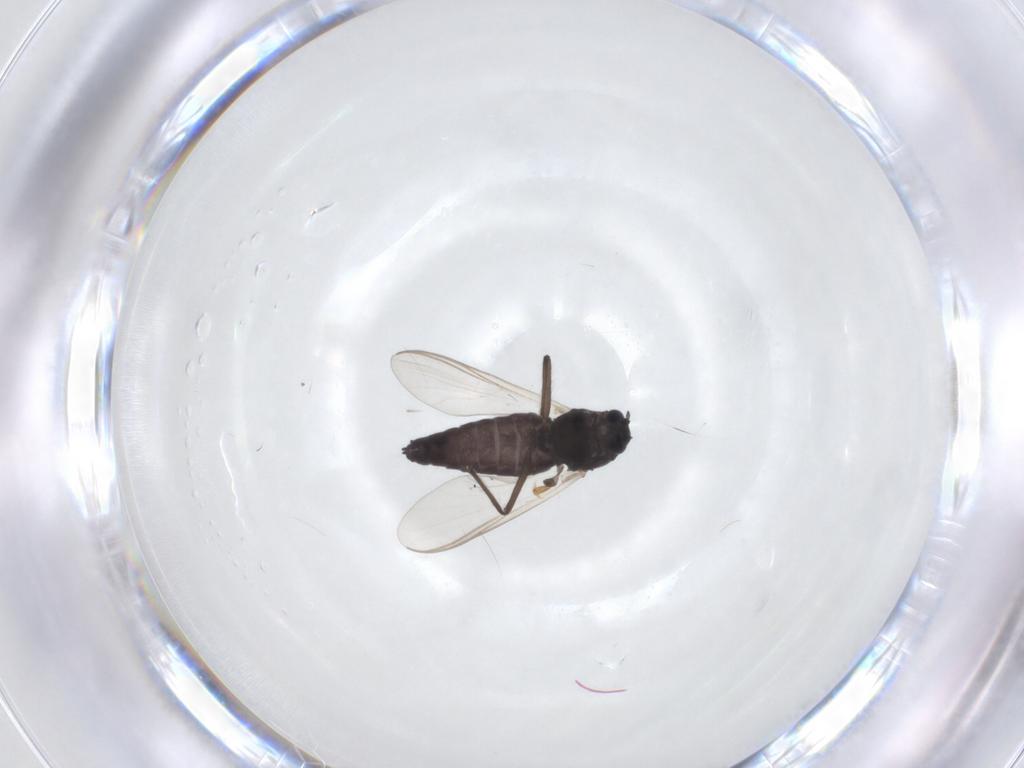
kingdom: Animalia
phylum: Arthropoda
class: Insecta
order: Diptera
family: Chironomidae
